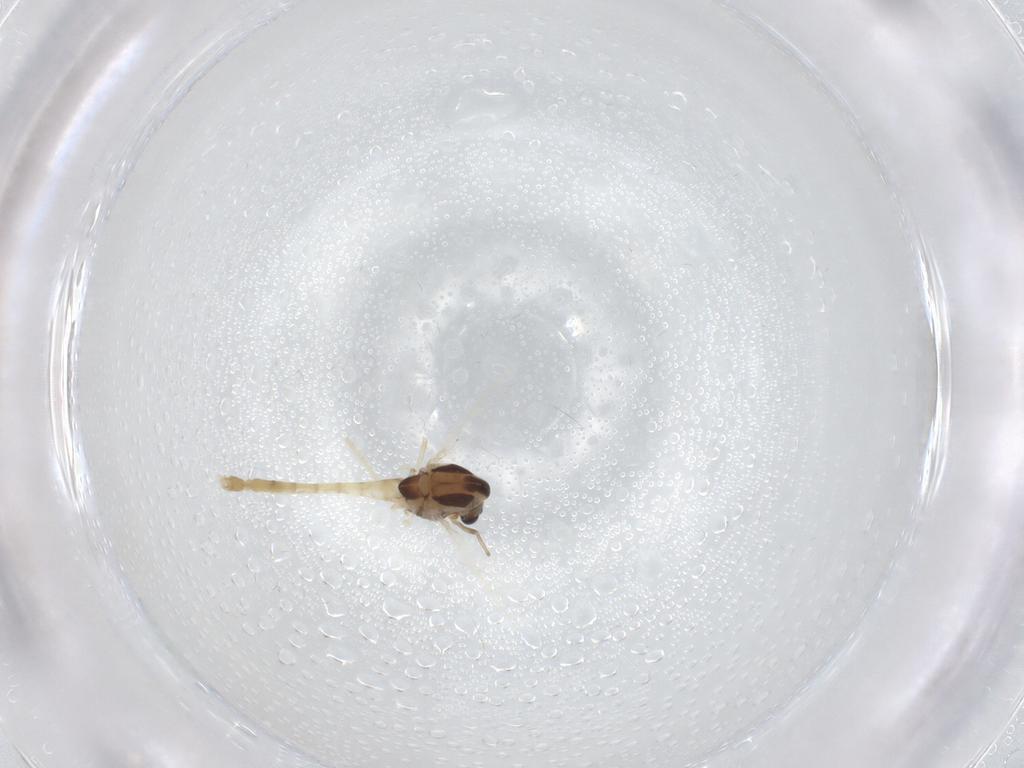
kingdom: Animalia
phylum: Arthropoda
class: Insecta
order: Diptera
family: Chironomidae
